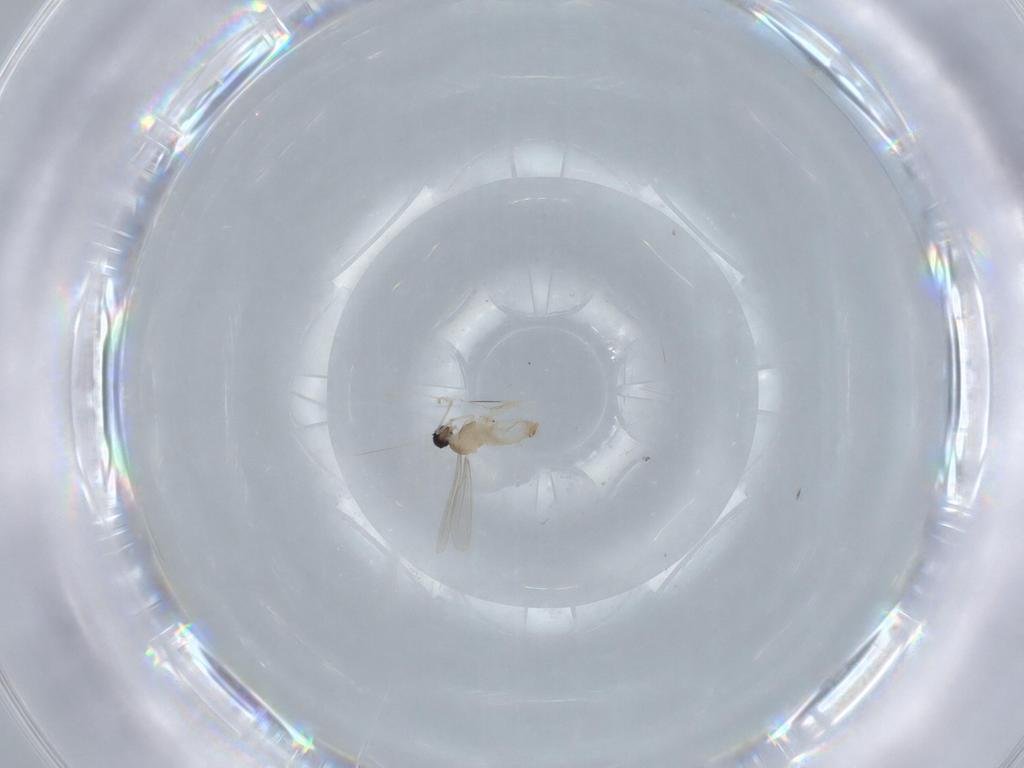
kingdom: Animalia
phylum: Arthropoda
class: Insecta
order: Diptera
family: Cecidomyiidae
